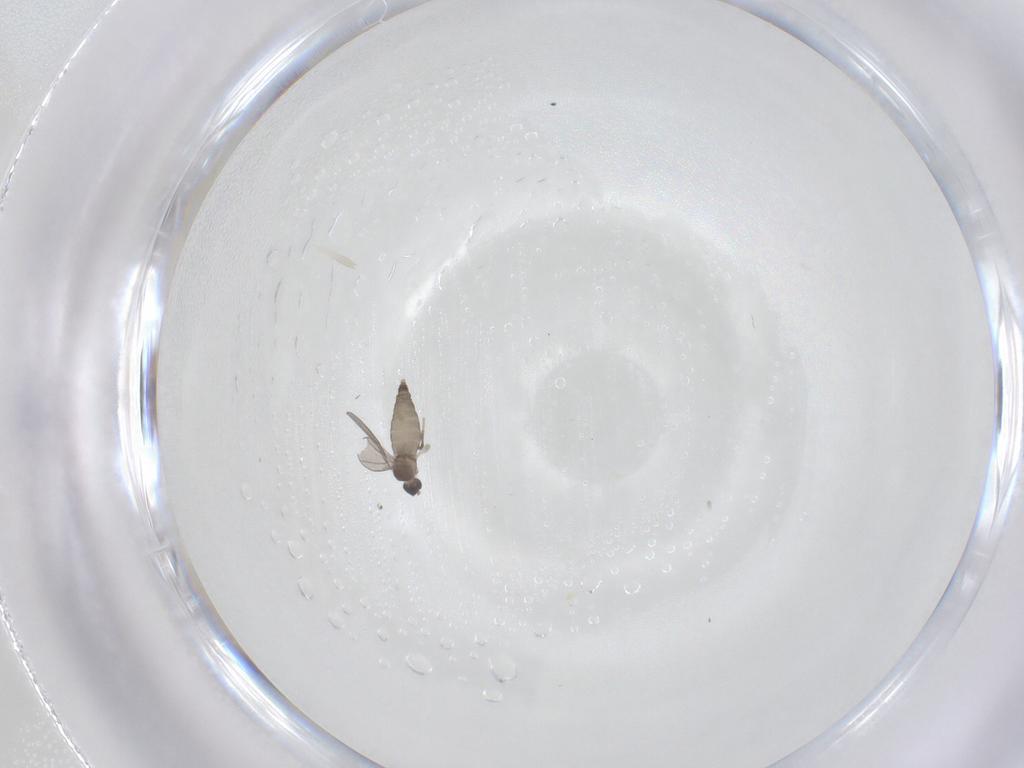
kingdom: Animalia
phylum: Arthropoda
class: Insecta
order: Diptera
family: Cecidomyiidae
